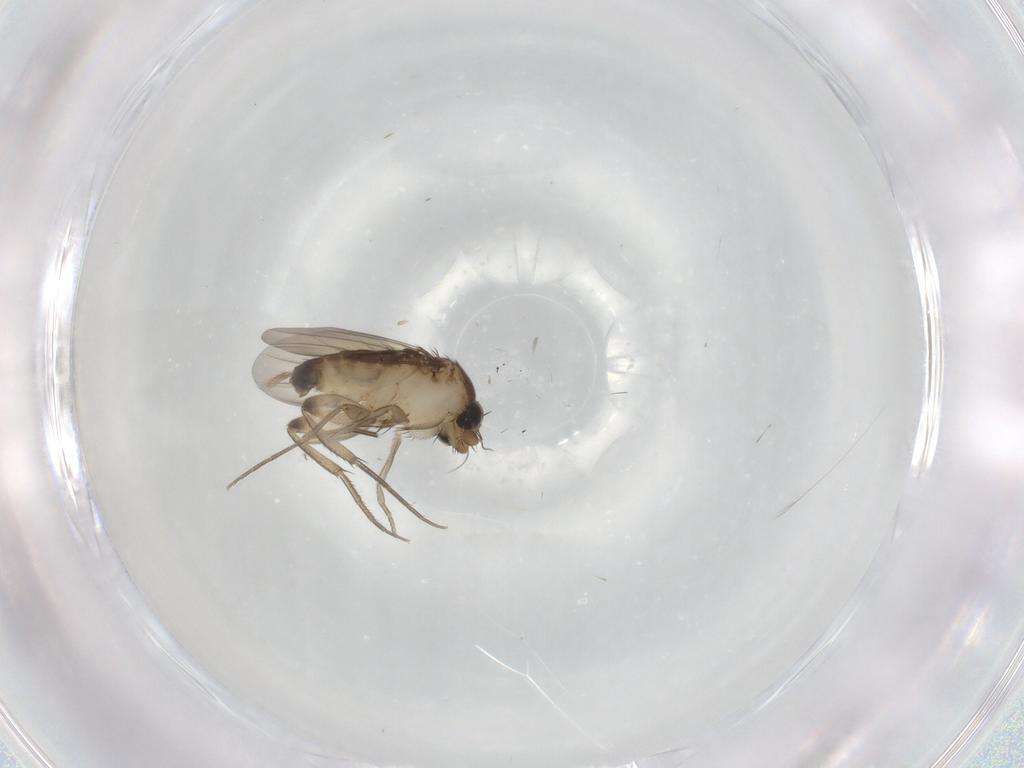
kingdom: Animalia
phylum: Arthropoda
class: Insecta
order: Diptera
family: Phoridae
